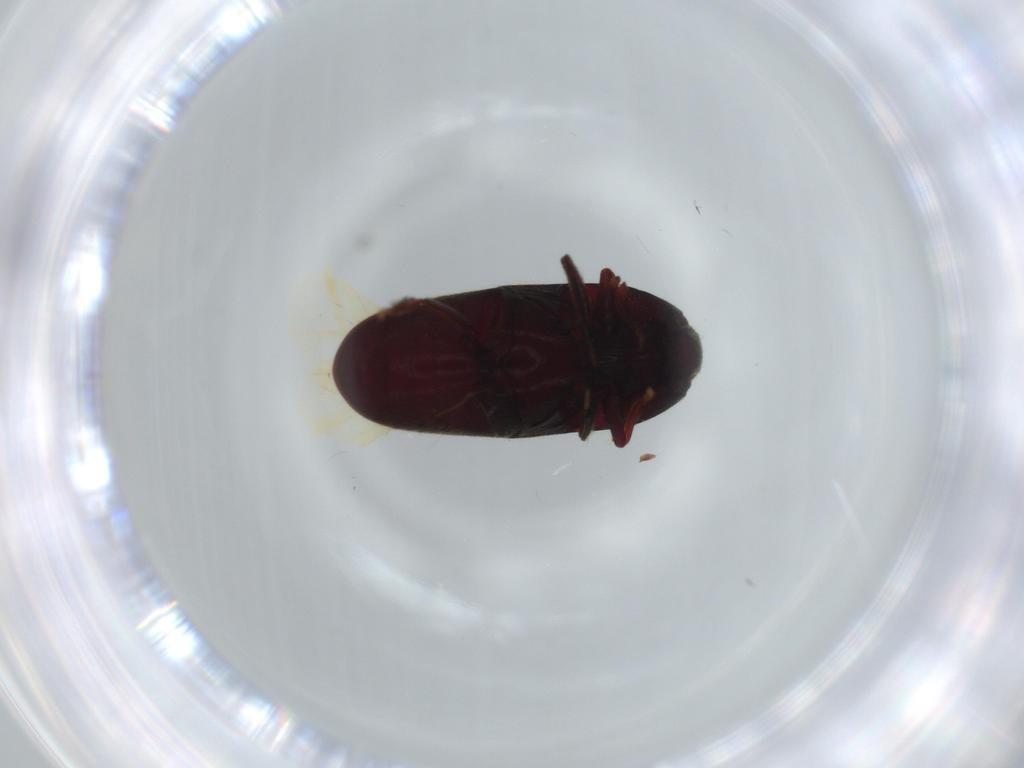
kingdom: Animalia
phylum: Arthropoda
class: Insecta
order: Coleoptera
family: Throscidae
